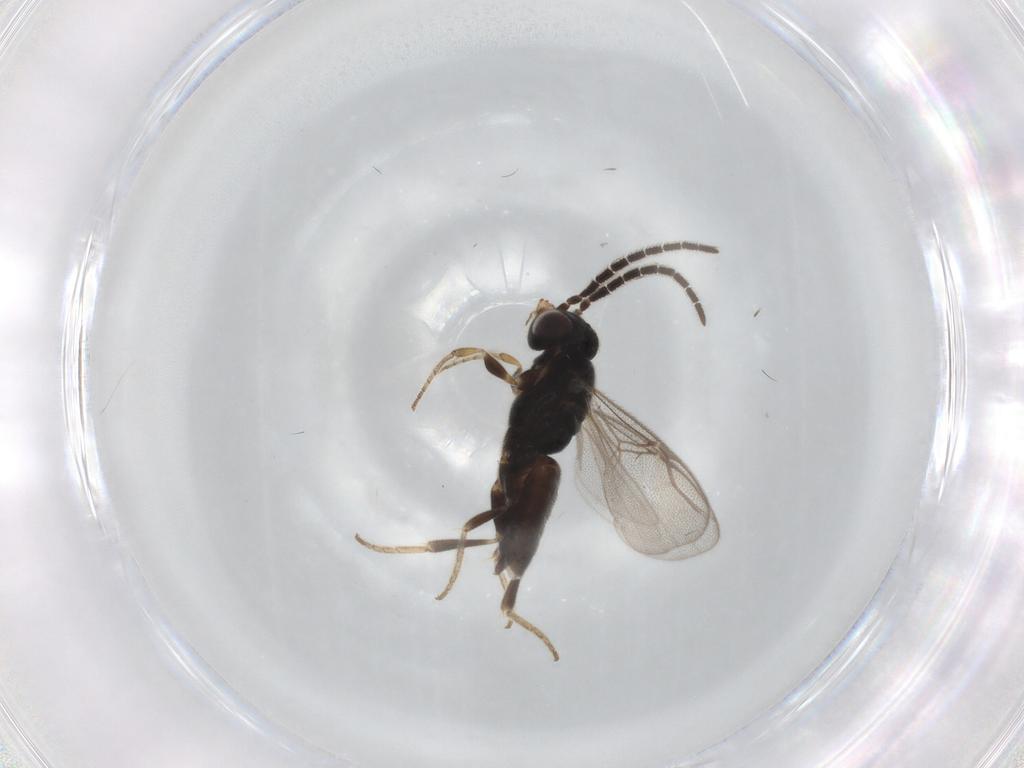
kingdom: Animalia
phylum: Arthropoda
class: Insecta
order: Hymenoptera
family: Dryinidae
